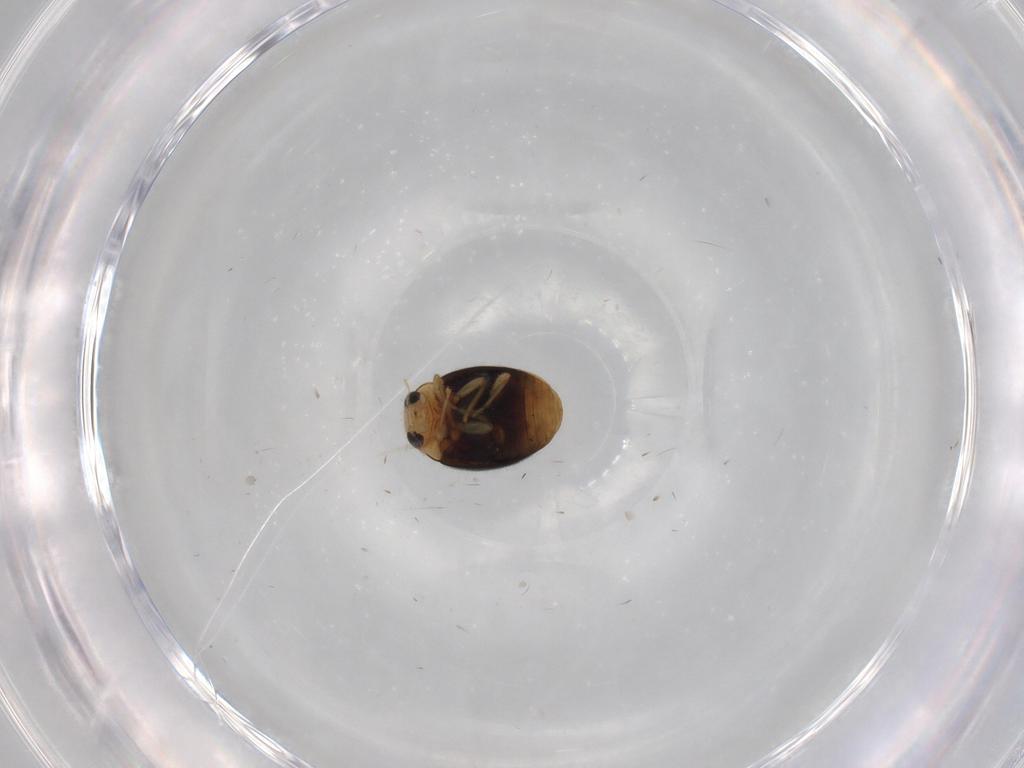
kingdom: Animalia
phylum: Arthropoda
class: Insecta
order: Coleoptera
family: Coccinellidae
